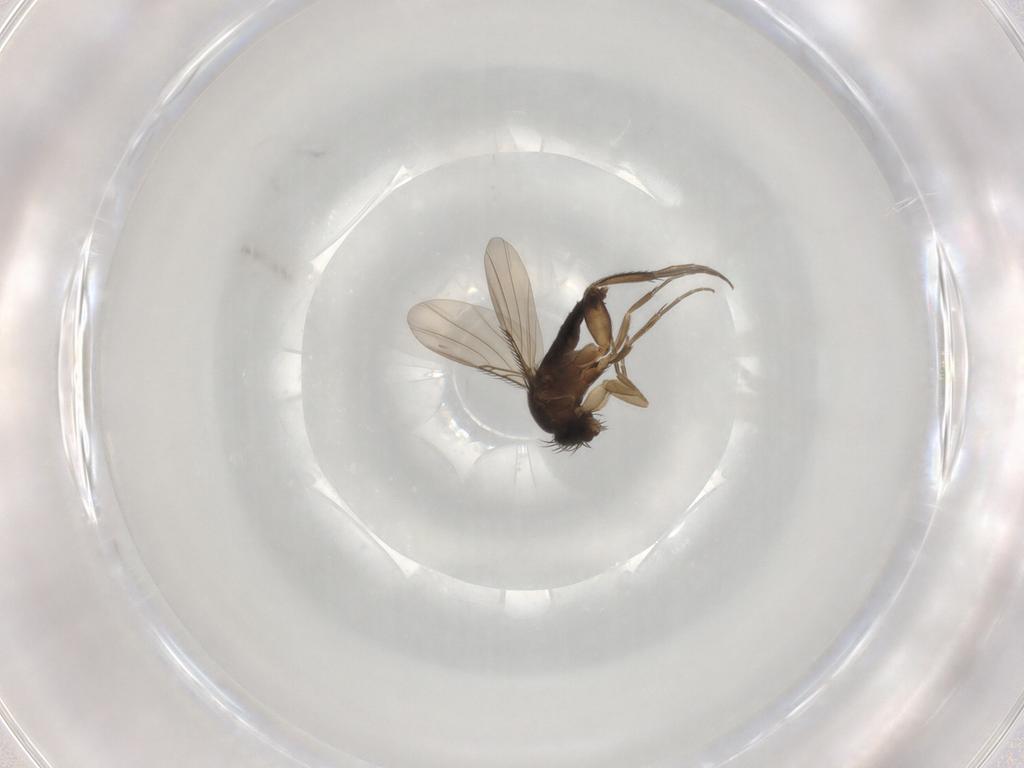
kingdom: Animalia
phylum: Arthropoda
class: Insecta
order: Diptera
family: Phoridae
